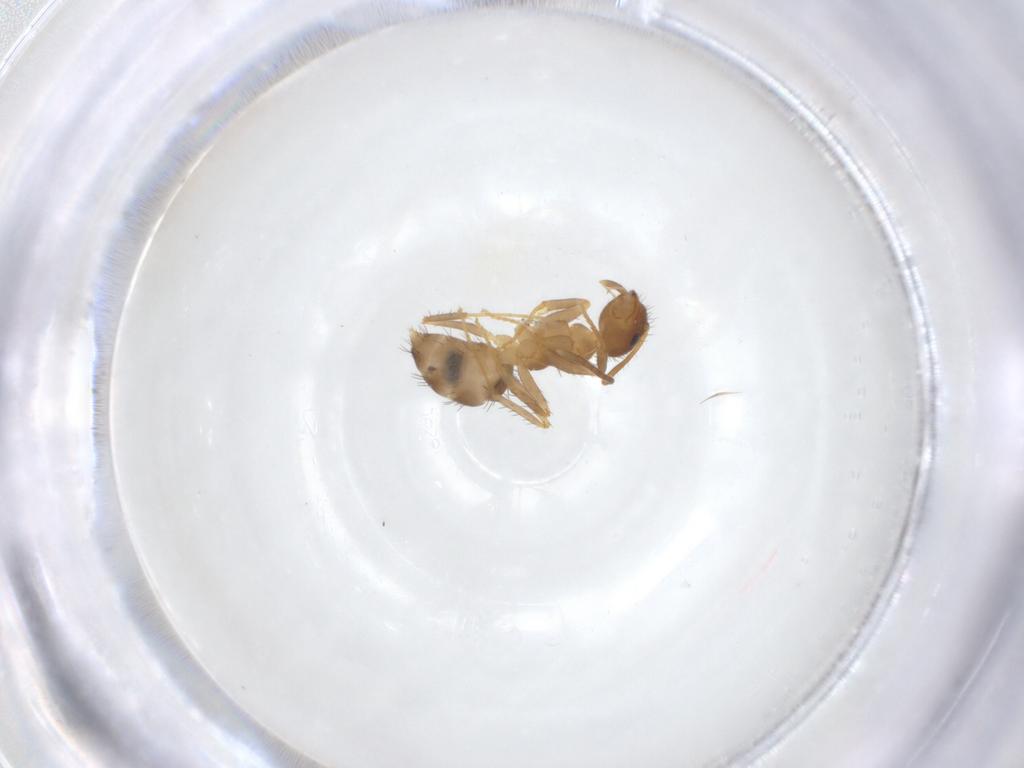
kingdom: Animalia
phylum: Arthropoda
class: Insecta
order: Hymenoptera
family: Formicidae
